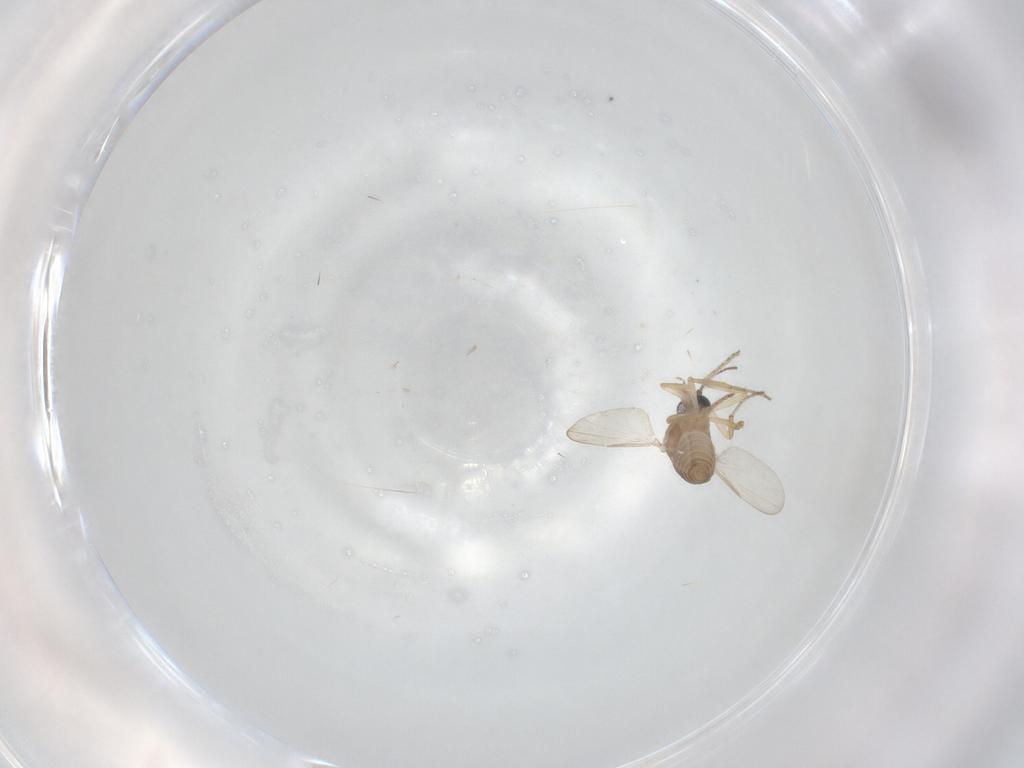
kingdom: Animalia
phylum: Arthropoda
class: Insecta
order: Diptera
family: Ceratopogonidae
